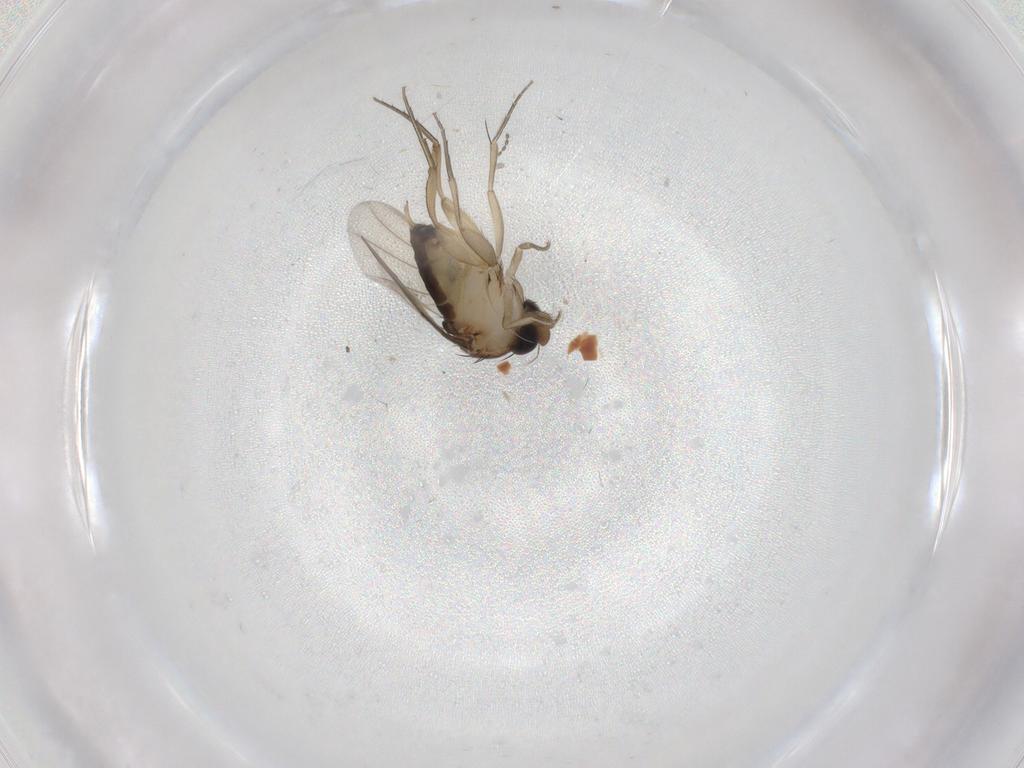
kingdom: Animalia
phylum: Arthropoda
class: Insecta
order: Diptera
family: Phoridae
